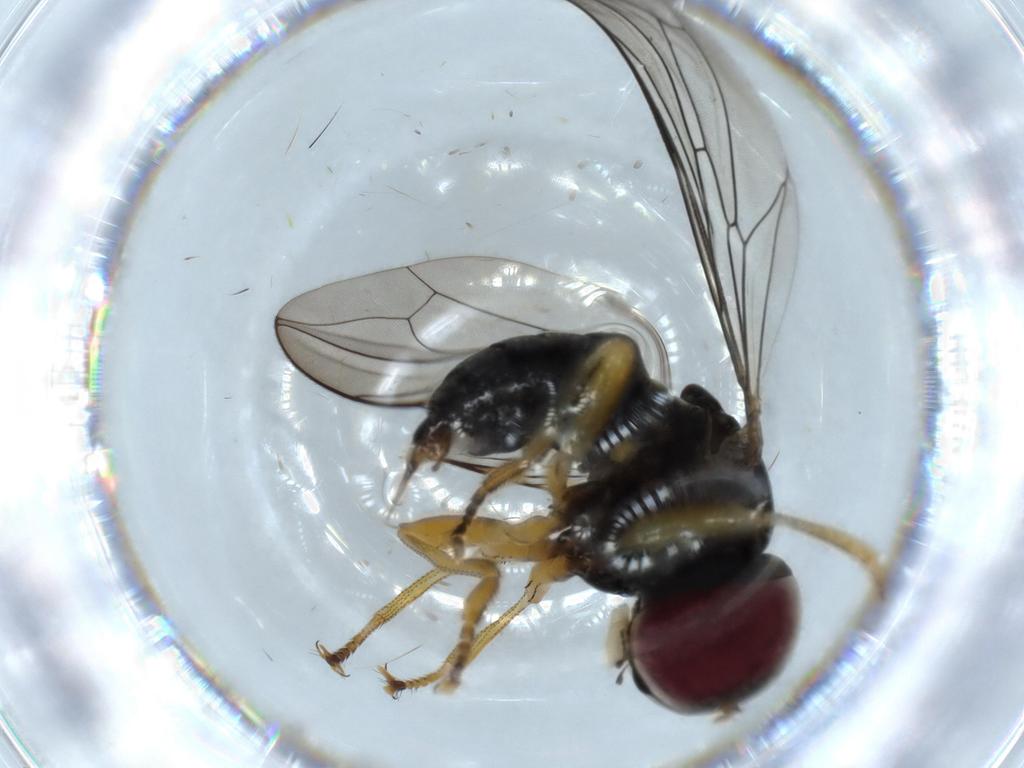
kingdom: Animalia
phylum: Arthropoda
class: Insecta
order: Diptera
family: Pipunculidae
